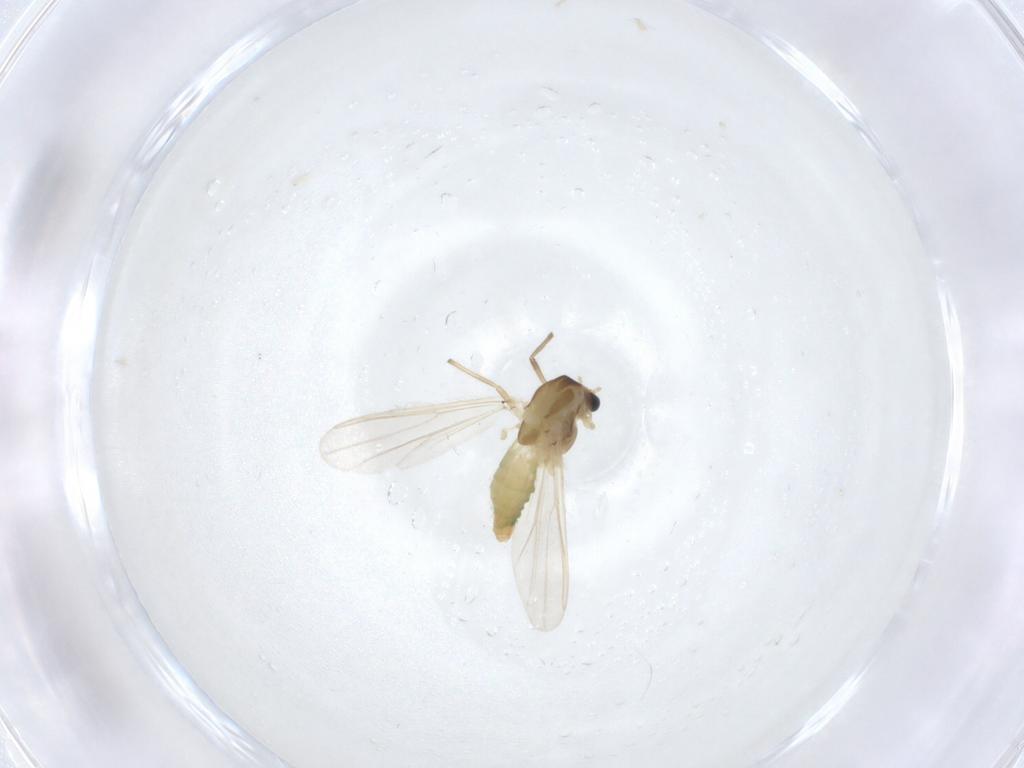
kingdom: Animalia
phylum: Arthropoda
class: Insecta
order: Diptera
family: Chironomidae
